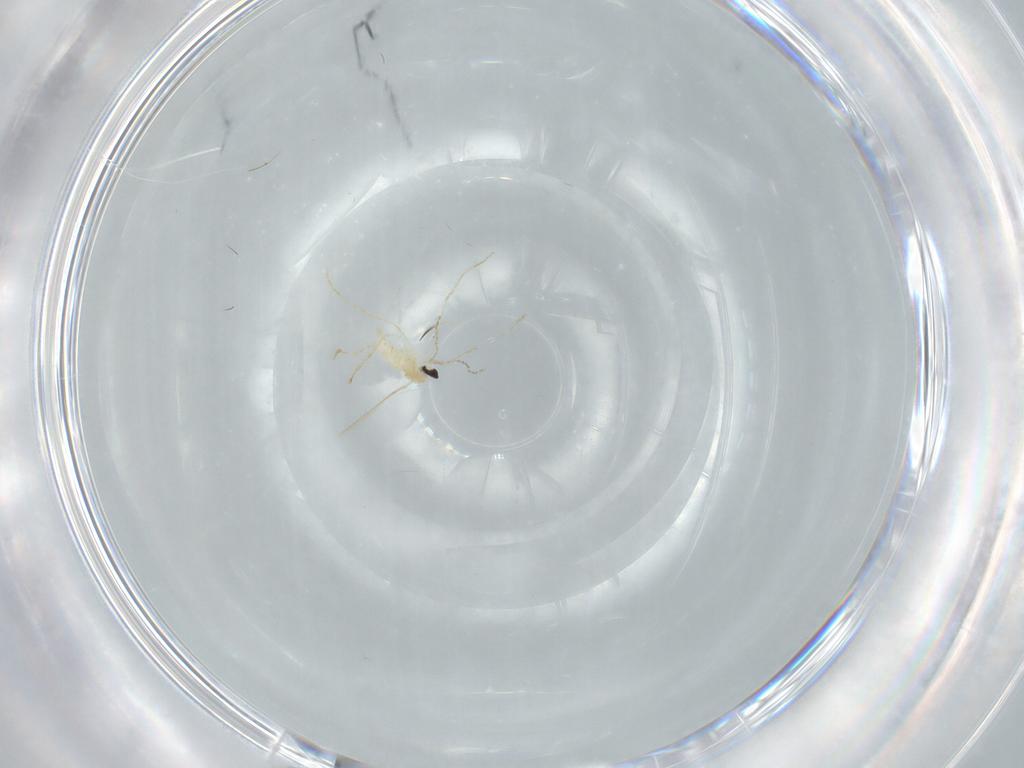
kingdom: Animalia
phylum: Arthropoda
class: Insecta
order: Diptera
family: Cecidomyiidae
